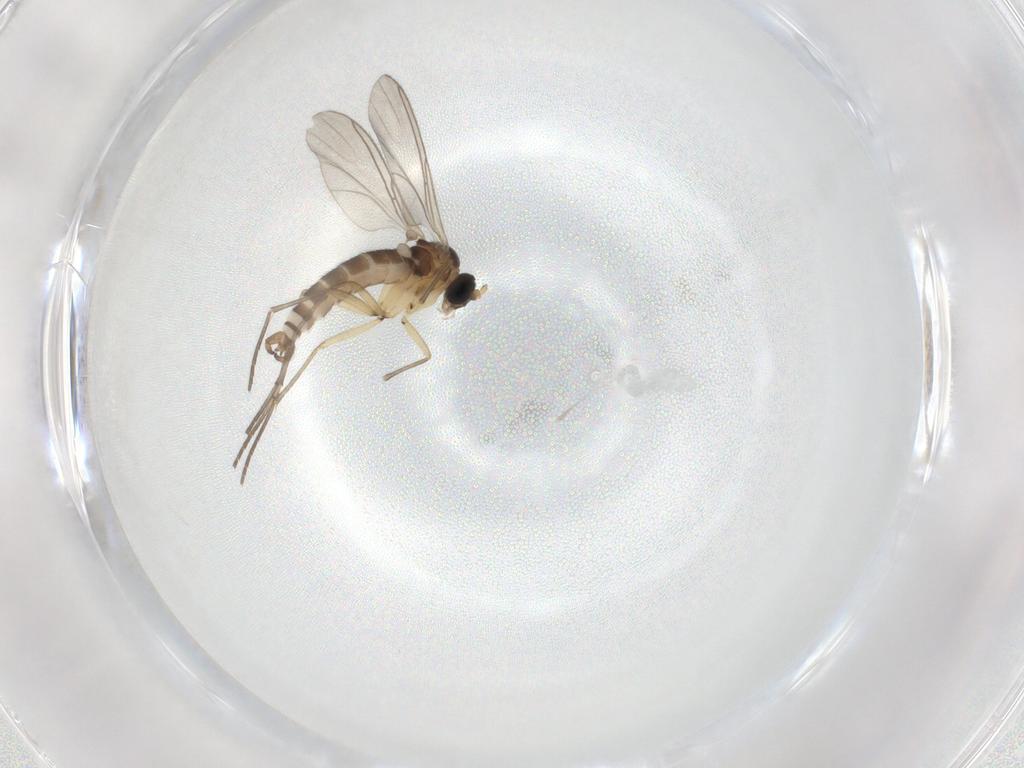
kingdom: Animalia
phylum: Arthropoda
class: Insecta
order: Diptera
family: Sciaridae
